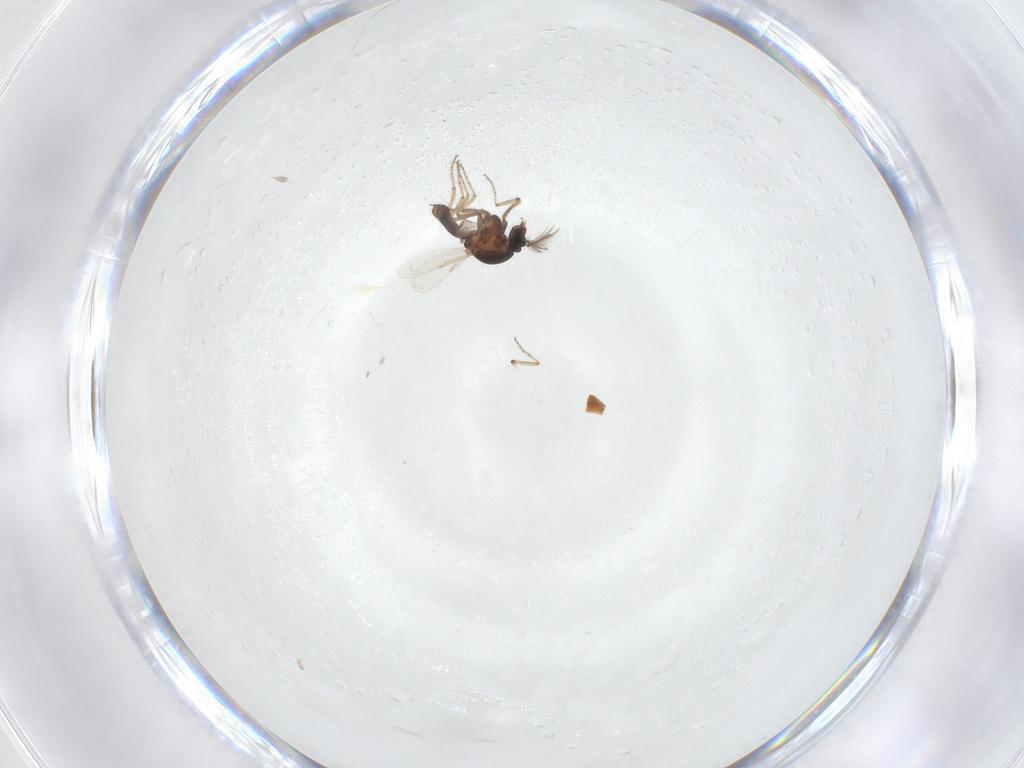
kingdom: Animalia
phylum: Arthropoda
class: Insecta
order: Diptera
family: Ceratopogonidae
